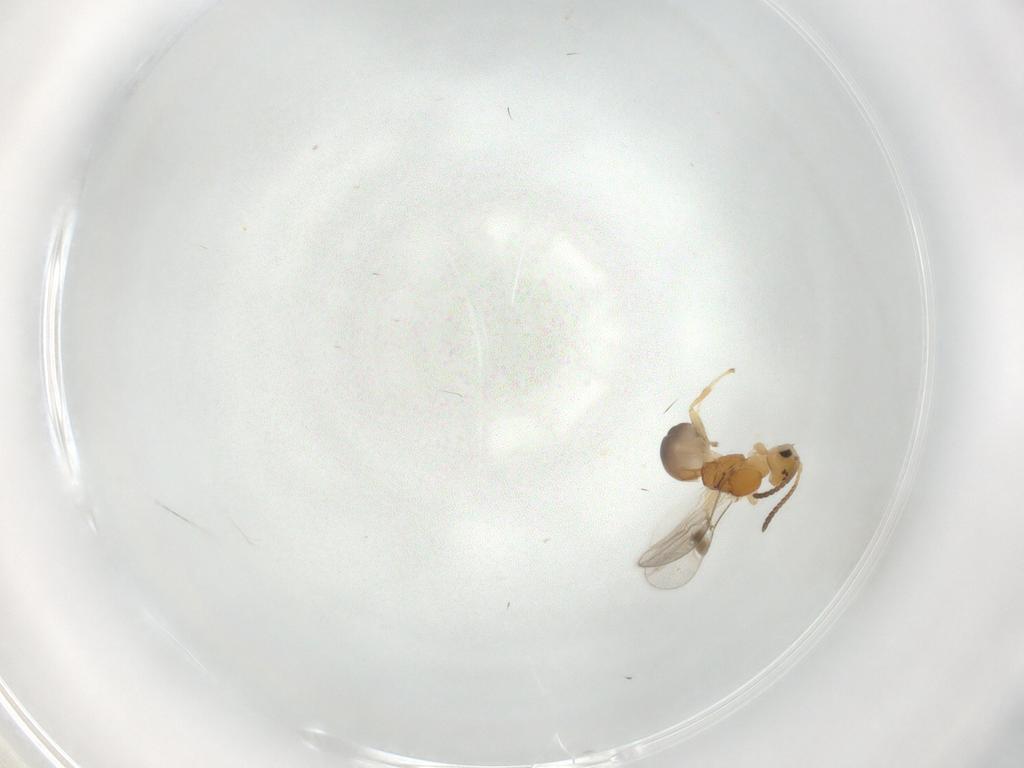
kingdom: Animalia
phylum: Arthropoda
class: Insecta
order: Hymenoptera
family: Braconidae
